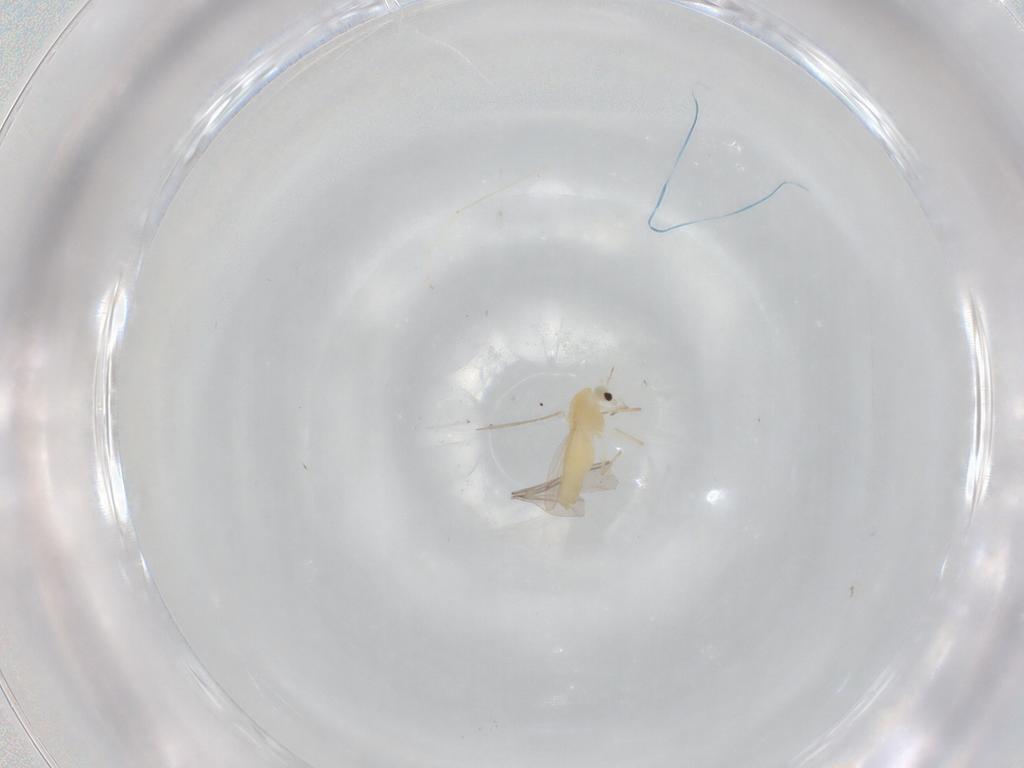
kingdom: Animalia
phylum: Arthropoda
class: Insecta
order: Diptera
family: Chironomidae
